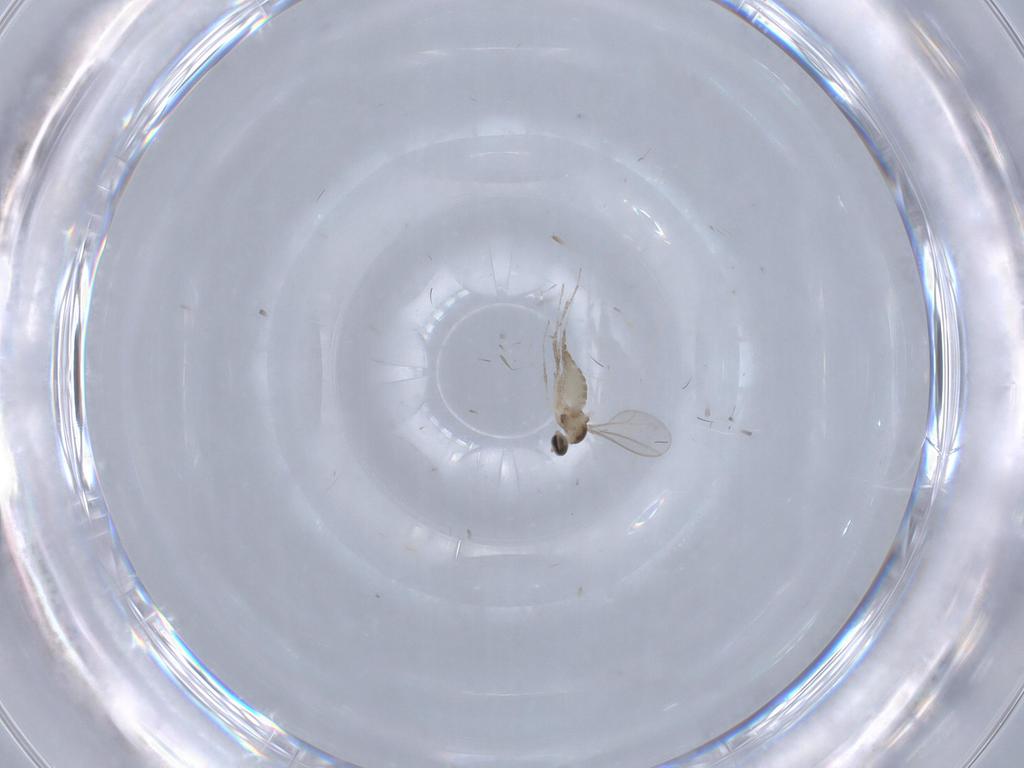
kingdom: Animalia
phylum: Arthropoda
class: Insecta
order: Diptera
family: Cecidomyiidae
